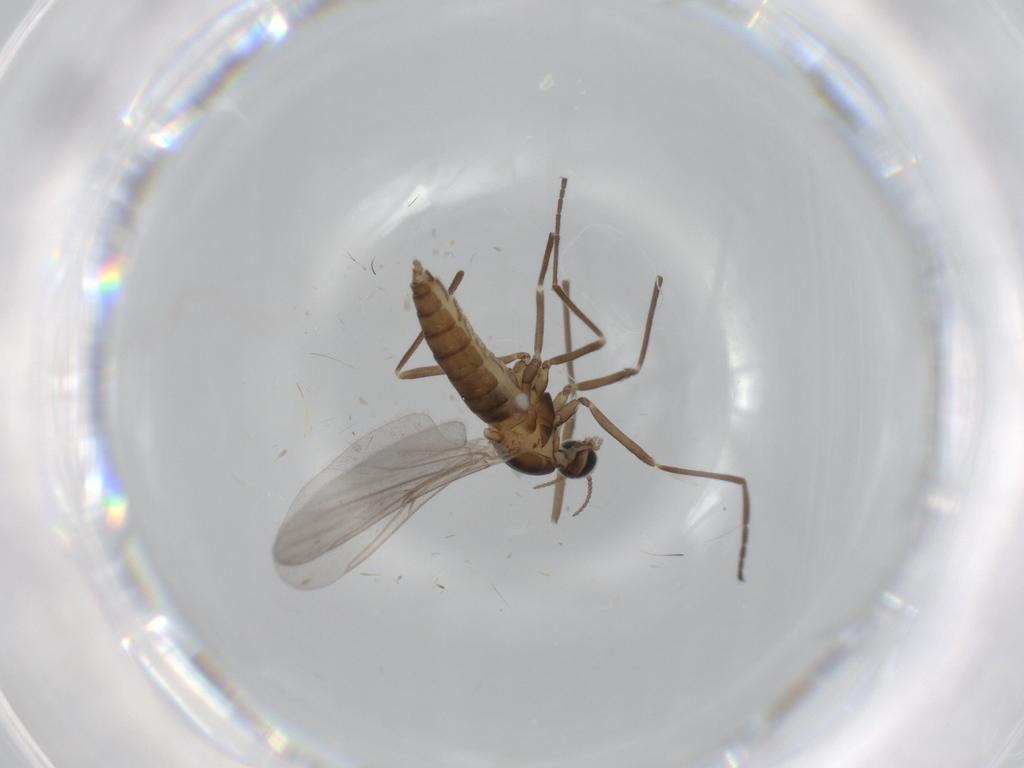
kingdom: Animalia
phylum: Arthropoda
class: Insecta
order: Diptera
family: Cecidomyiidae
